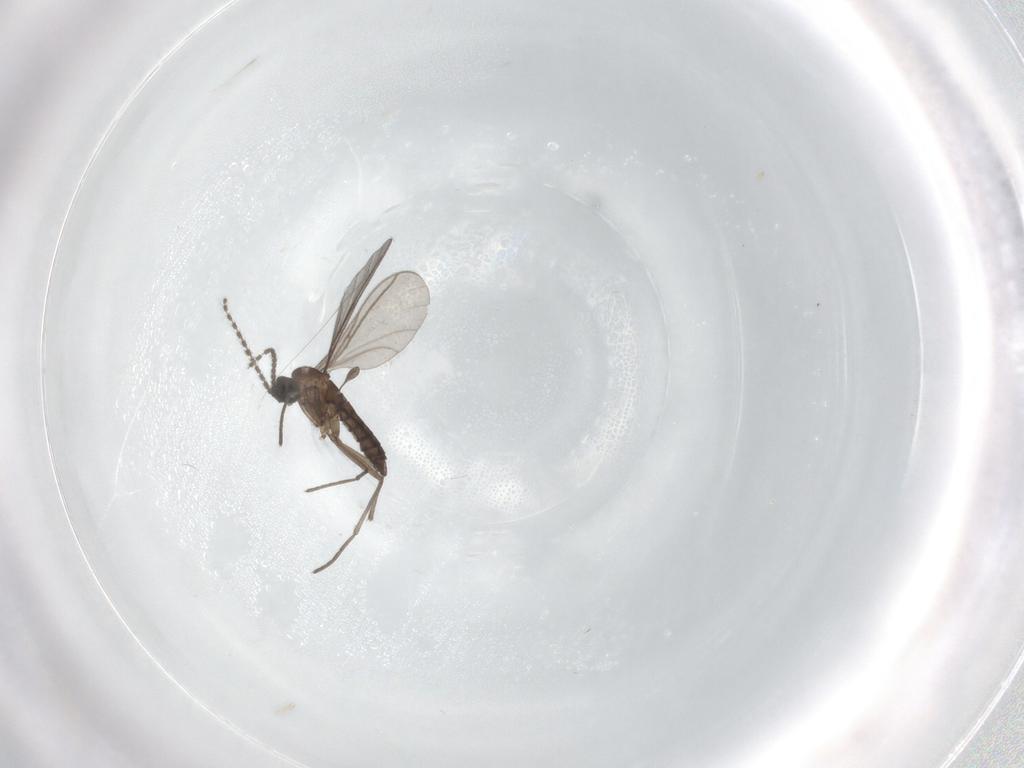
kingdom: Animalia
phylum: Arthropoda
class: Insecta
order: Diptera
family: Sciaridae
